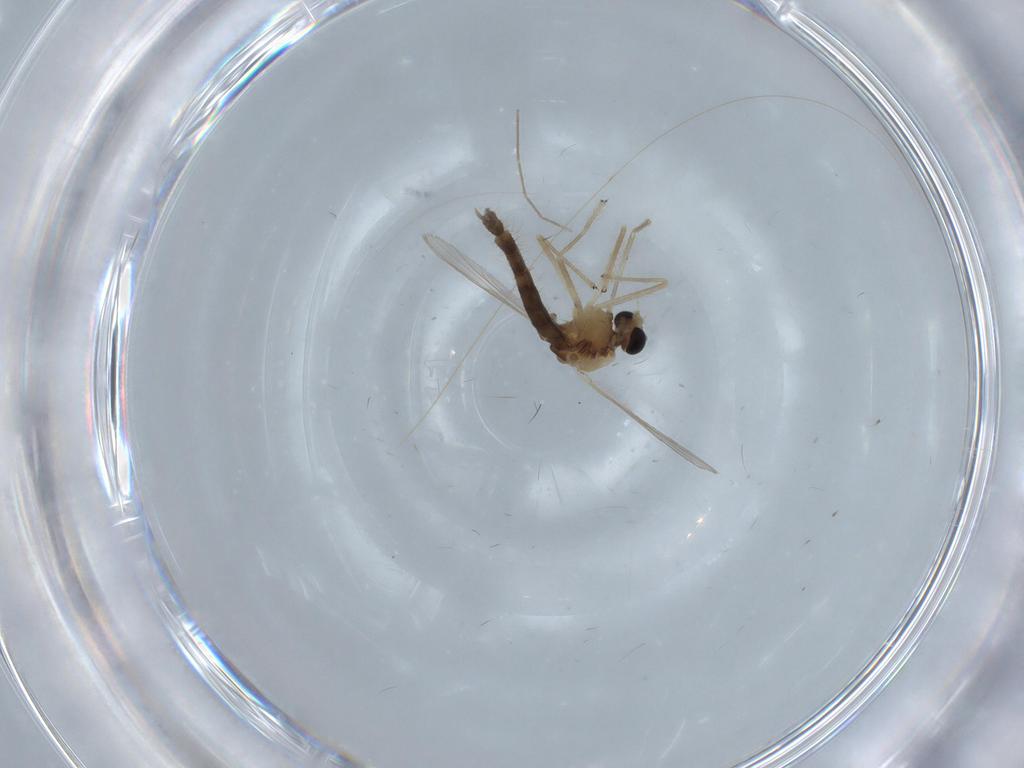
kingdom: Animalia
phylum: Arthropoda
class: Insecta
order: Diptera
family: Chironomidae
